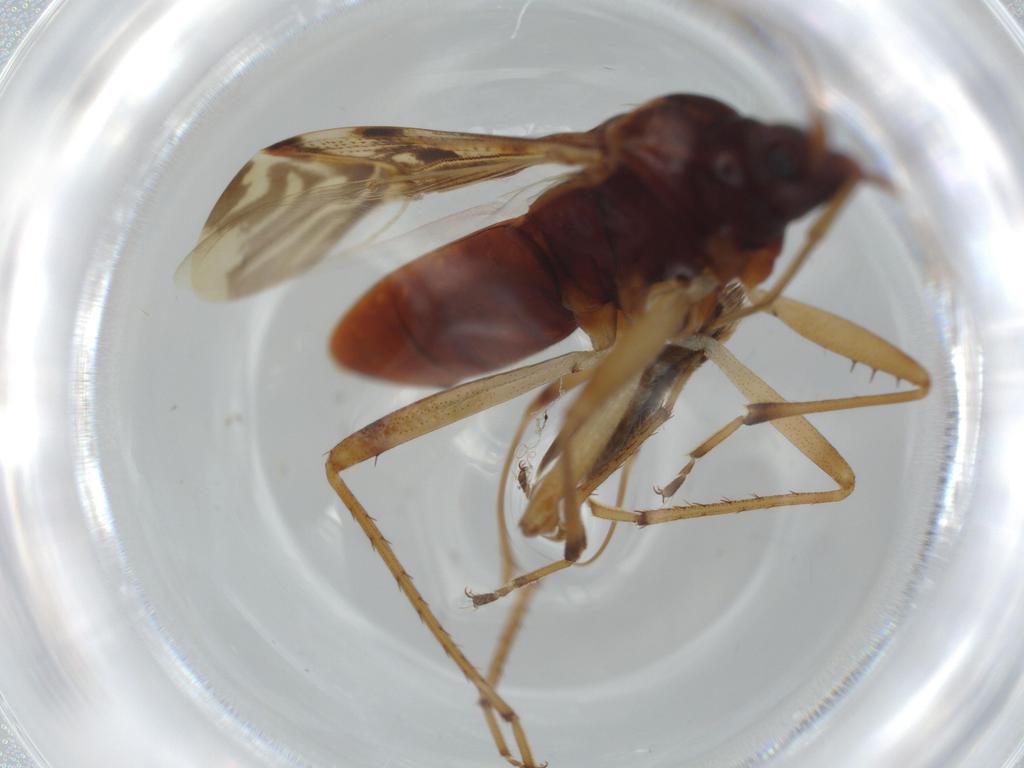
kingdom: Animalia
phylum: Arthropoda
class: Insecta
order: Hemiptera
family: Rhyparochromidae
